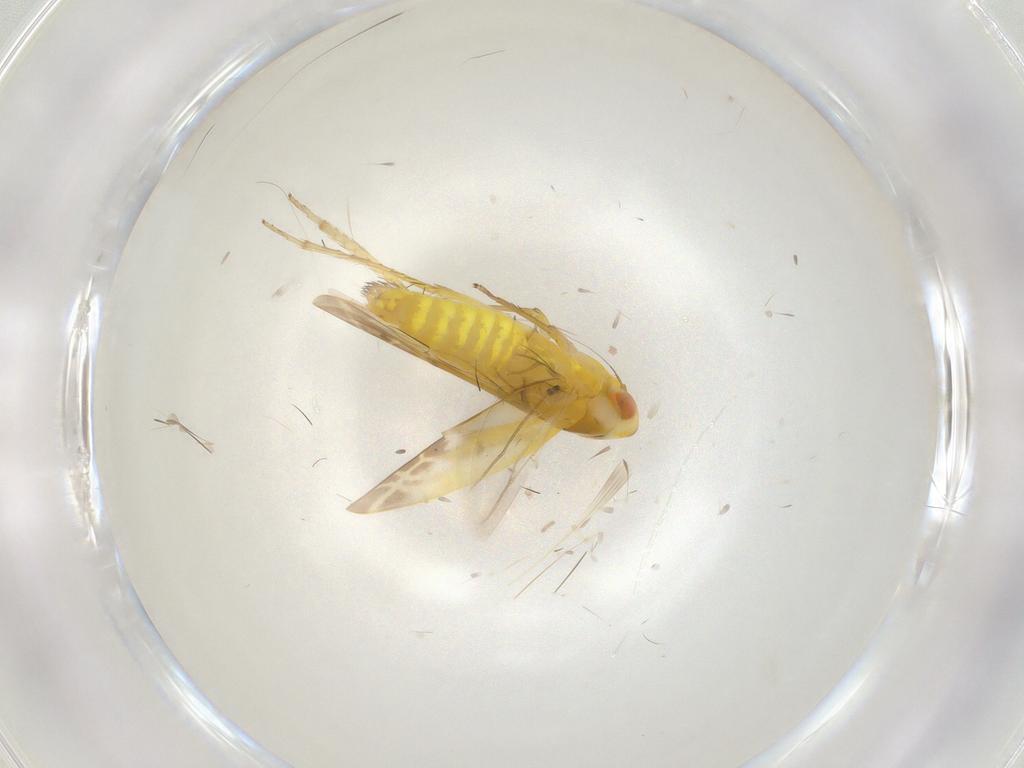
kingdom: Animalia
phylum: Arthropoda
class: Insecta
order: Hemiptera
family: Cicadellidae
